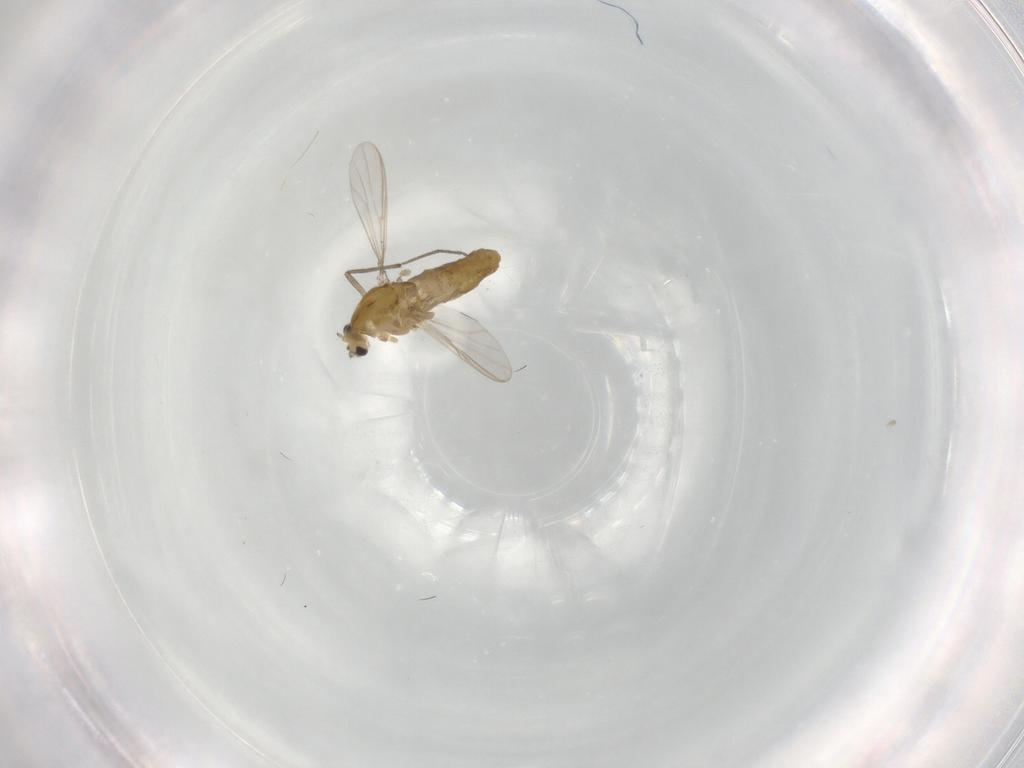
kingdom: Animalia
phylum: Arthropoda
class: Insecta
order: Diptera
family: Chironomidae
